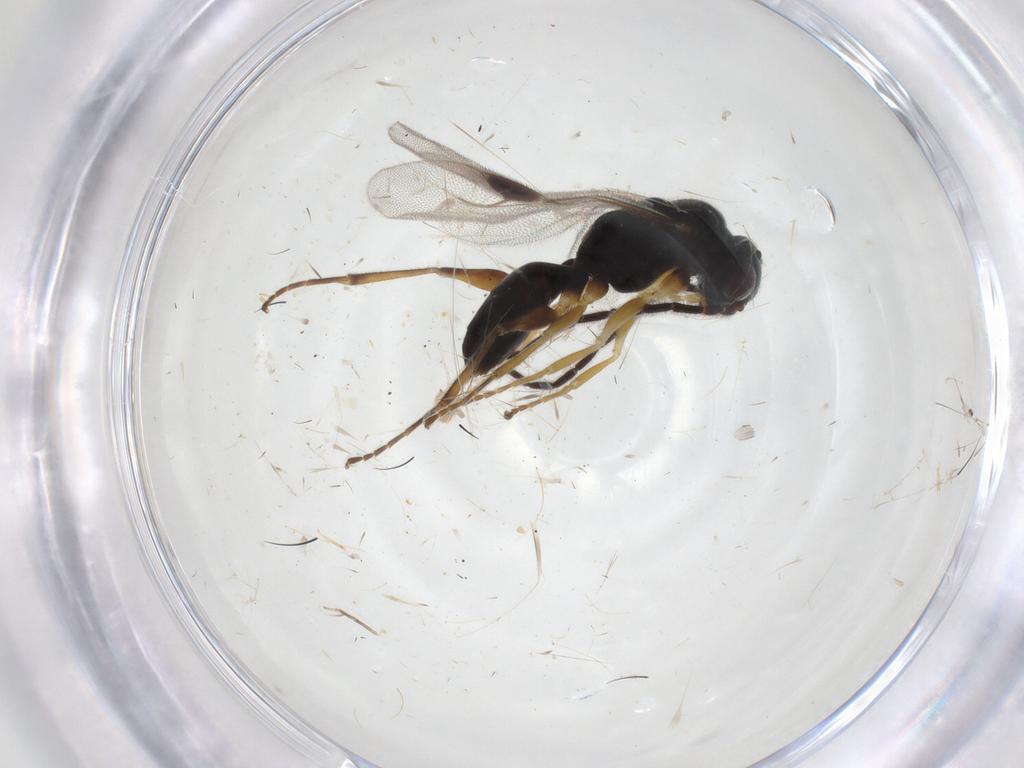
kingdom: Animalia
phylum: Arthropoda
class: Insecta
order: Hymenoptera
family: Dryinidae
